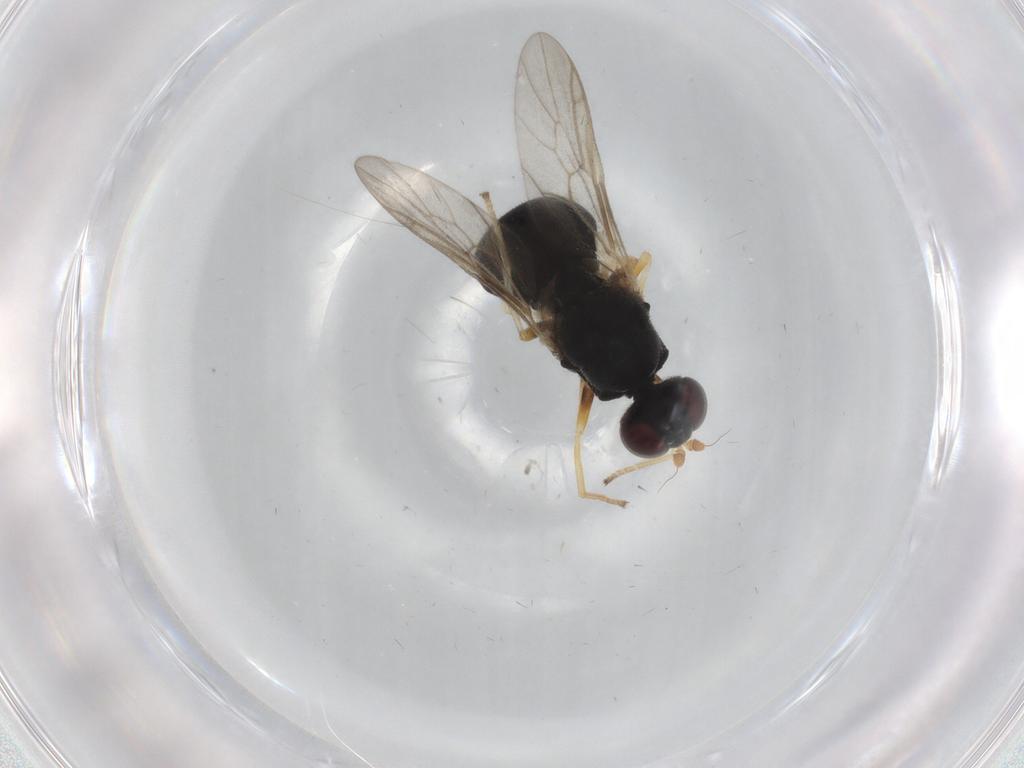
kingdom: Animalia
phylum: Arthropoda
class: Insecta
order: Diptera
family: Stratiomyidae
